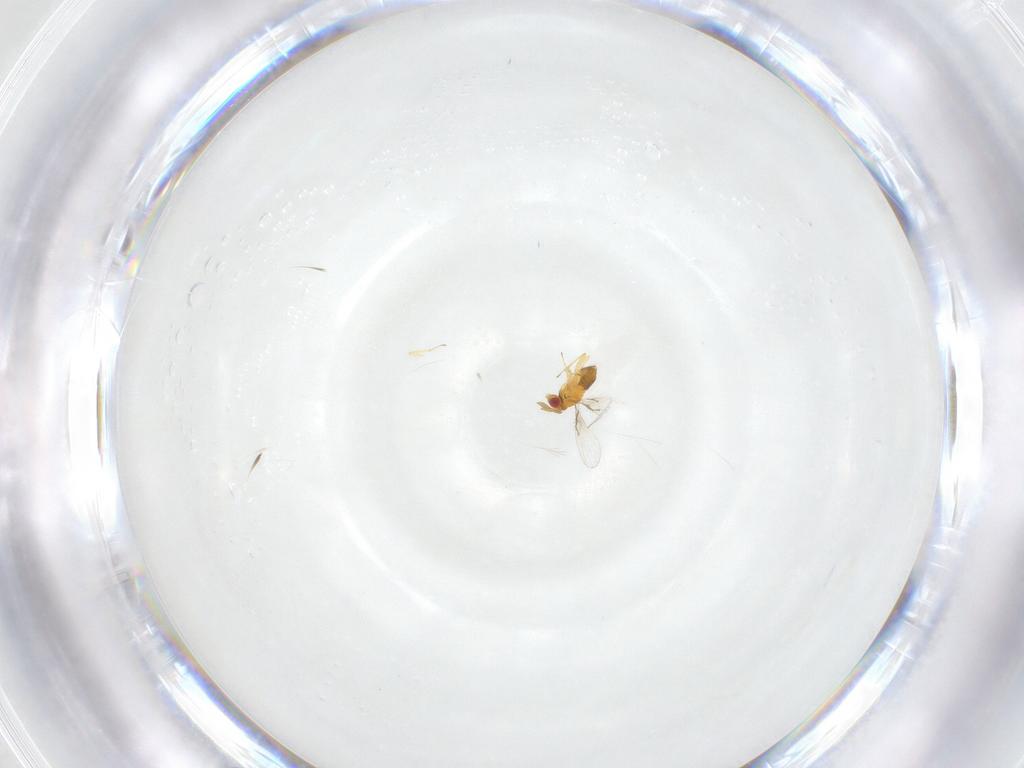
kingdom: Animalia
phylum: Arthropoda
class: Insecta
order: Hymenoptera
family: Trichogrammatidae
